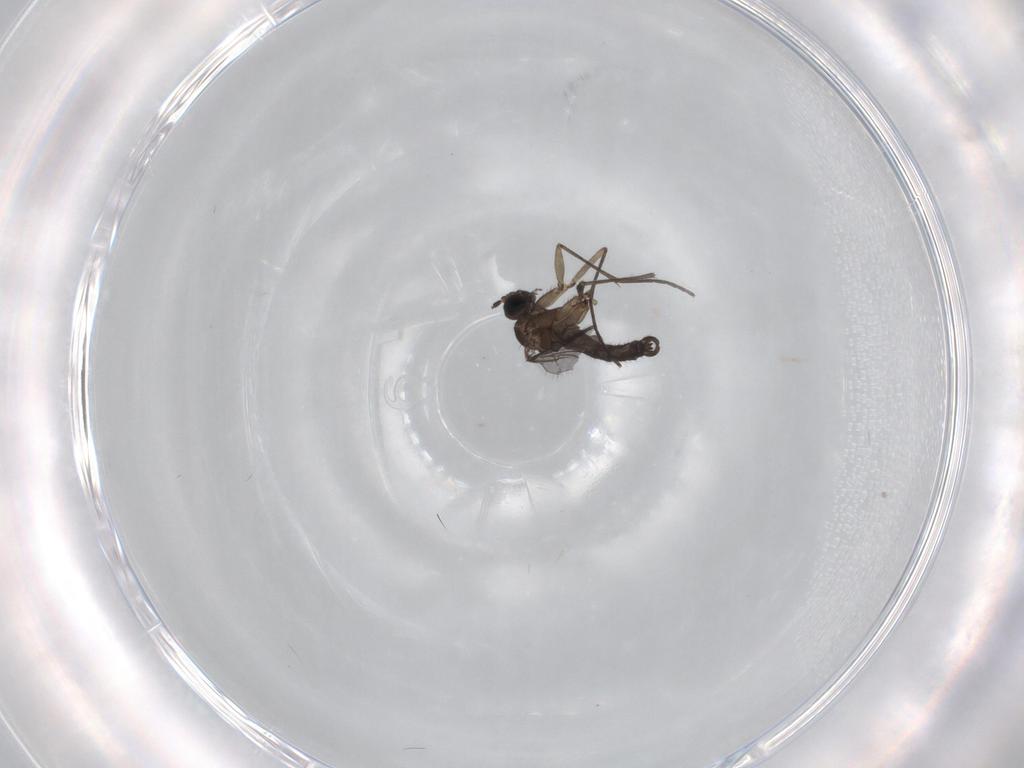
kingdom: Animalia
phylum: Arthropoda
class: Insecta
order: Diptera
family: Sciaridae
